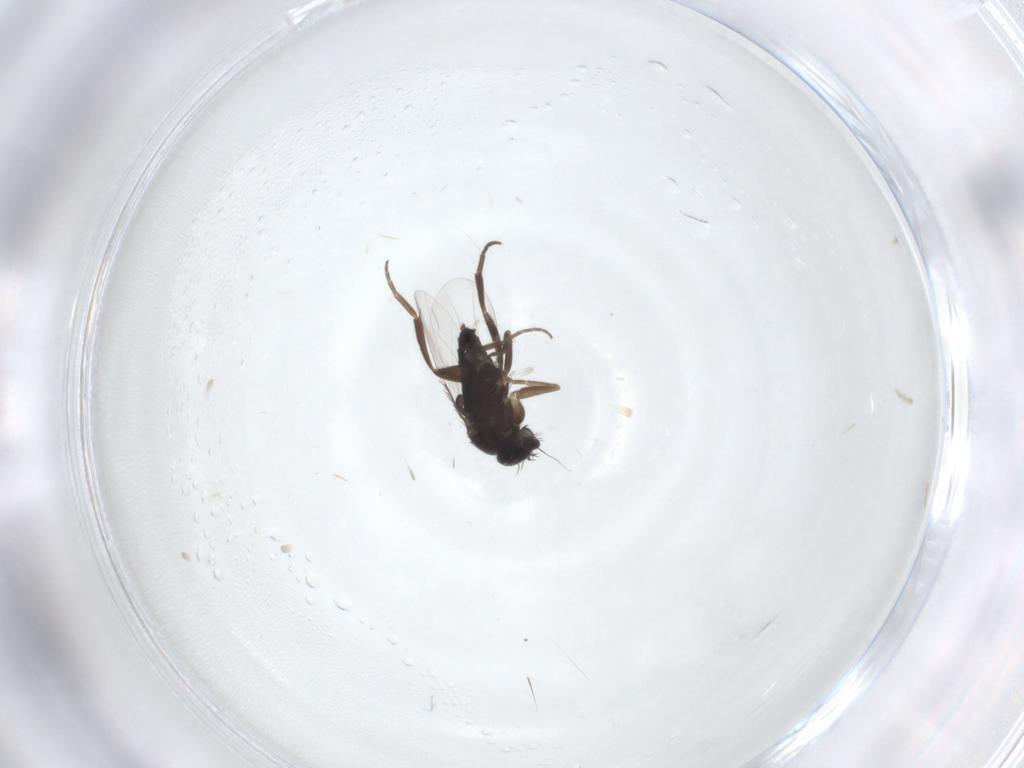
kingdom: Animalia
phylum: Arthropoda
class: Insecta
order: Diptera
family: Phoridae
